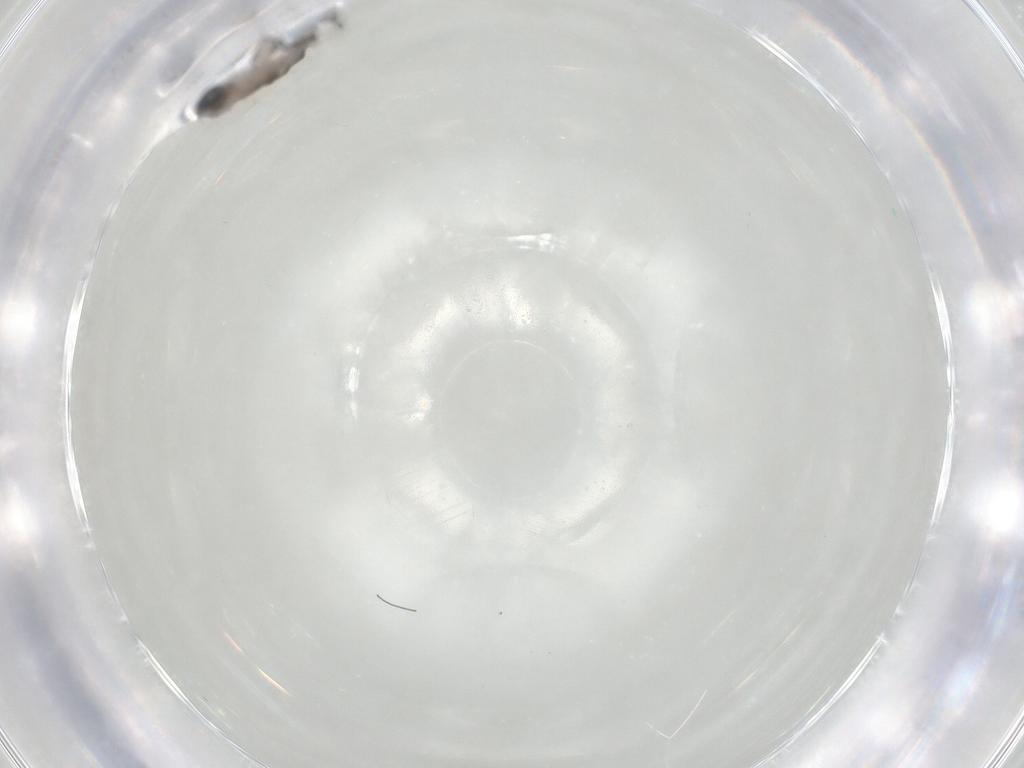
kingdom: Animalia
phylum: Arthropoda
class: Insecta
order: Diptera
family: Sciaridae
